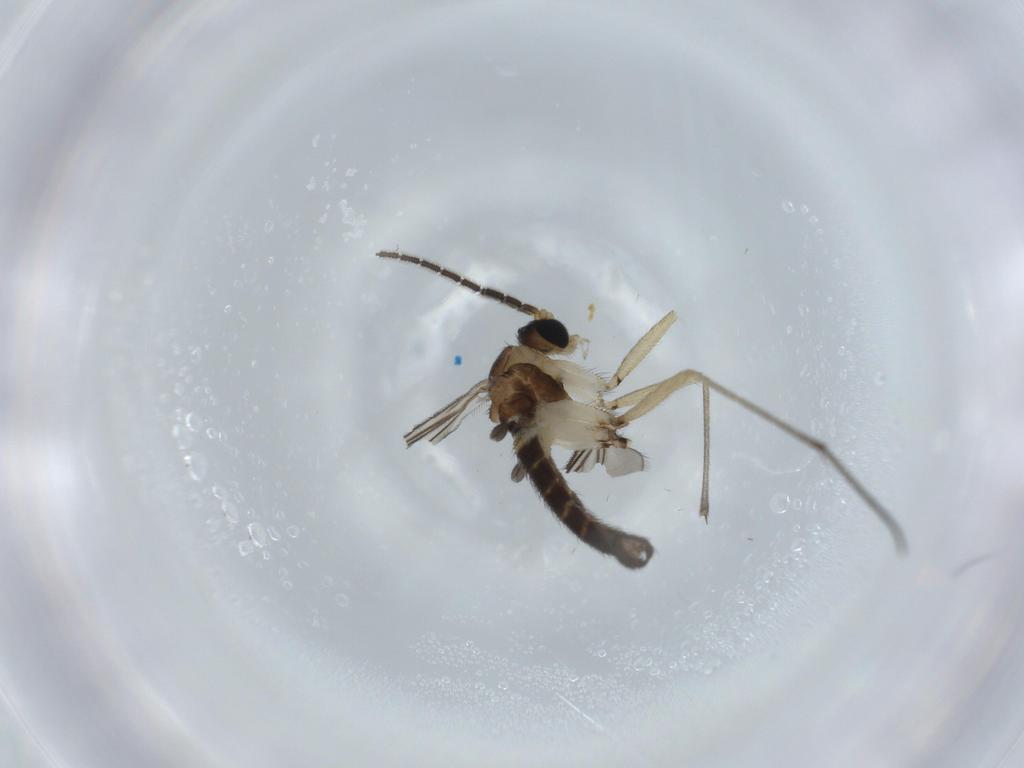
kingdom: Animalia
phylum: Arthropoda
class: Insecta
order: Diptera
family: Sciaridae
